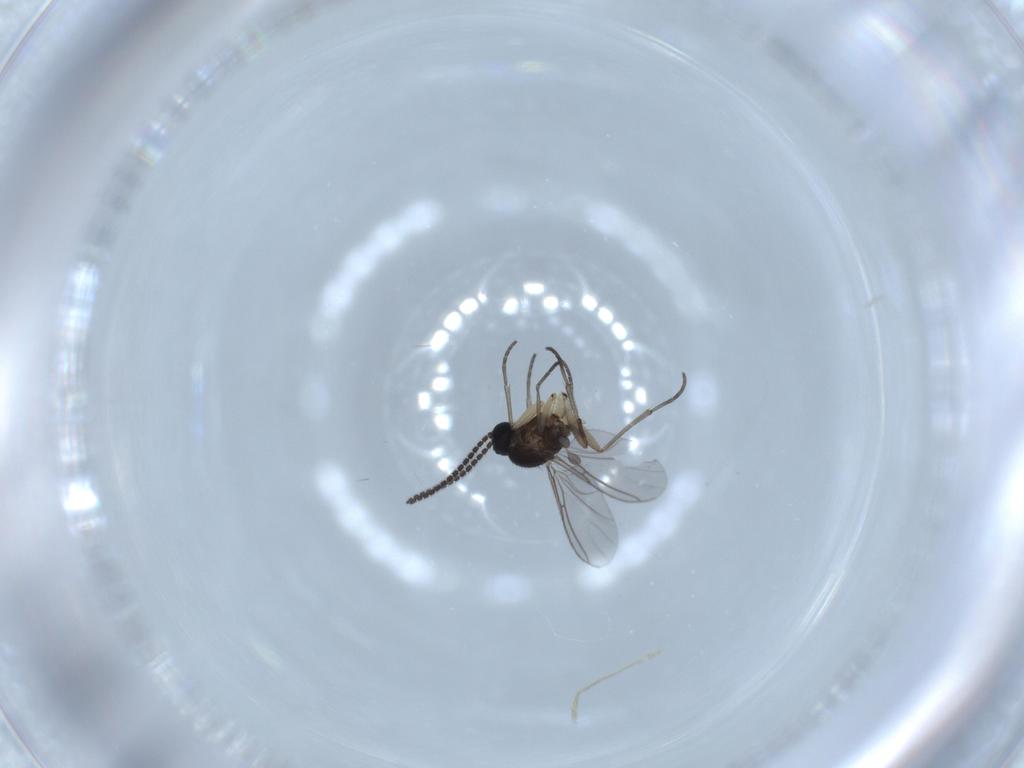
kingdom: Animalia
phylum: Arthropoda
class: Insecta
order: Diptera
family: Sciaridae
